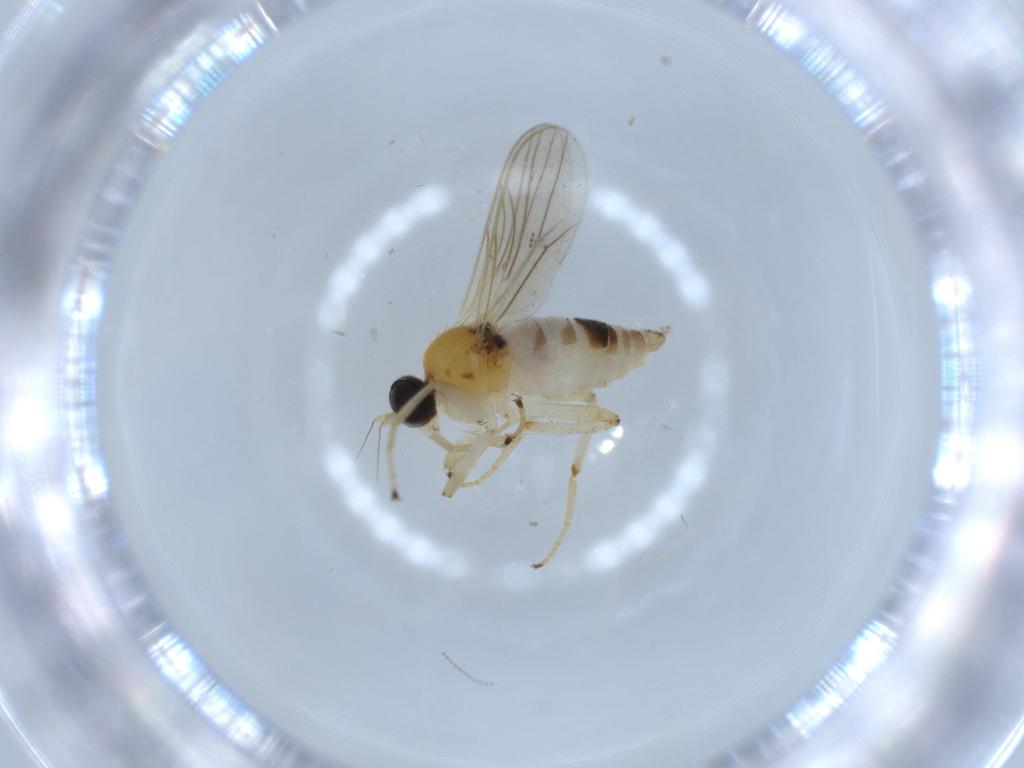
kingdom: Animalia
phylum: Arthropoda
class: Insecta
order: Diptera
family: Hybotidae
